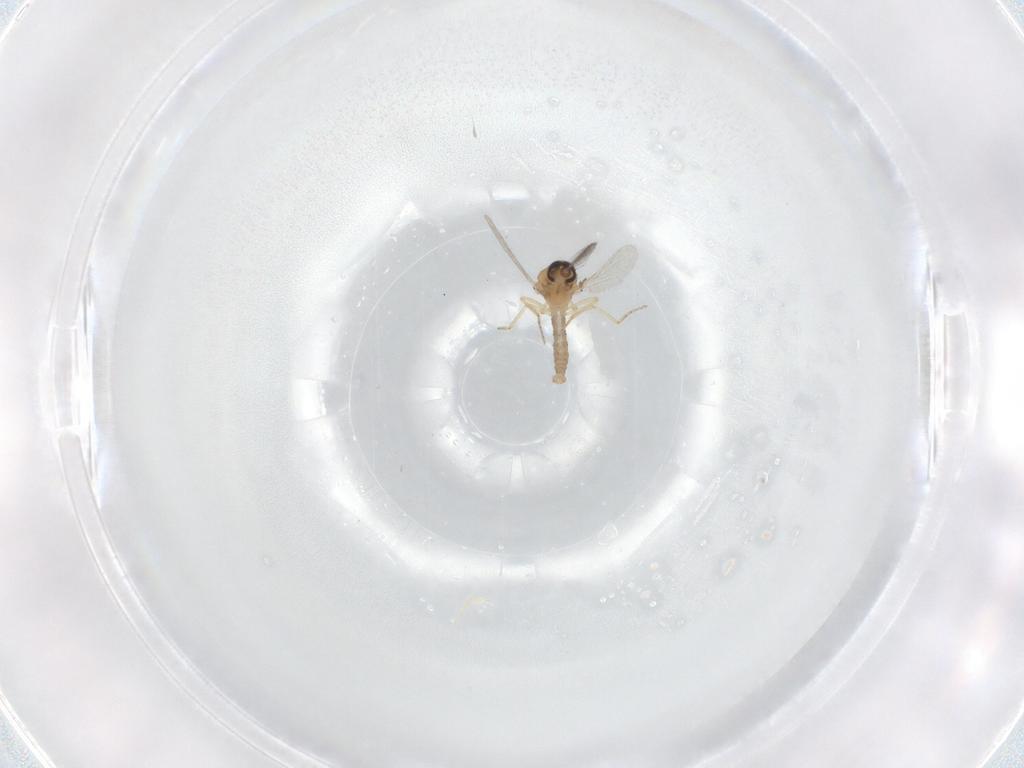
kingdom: Animalia
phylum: Arthropoda
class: Insecta
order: Diptera
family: Ceratopogonidae
